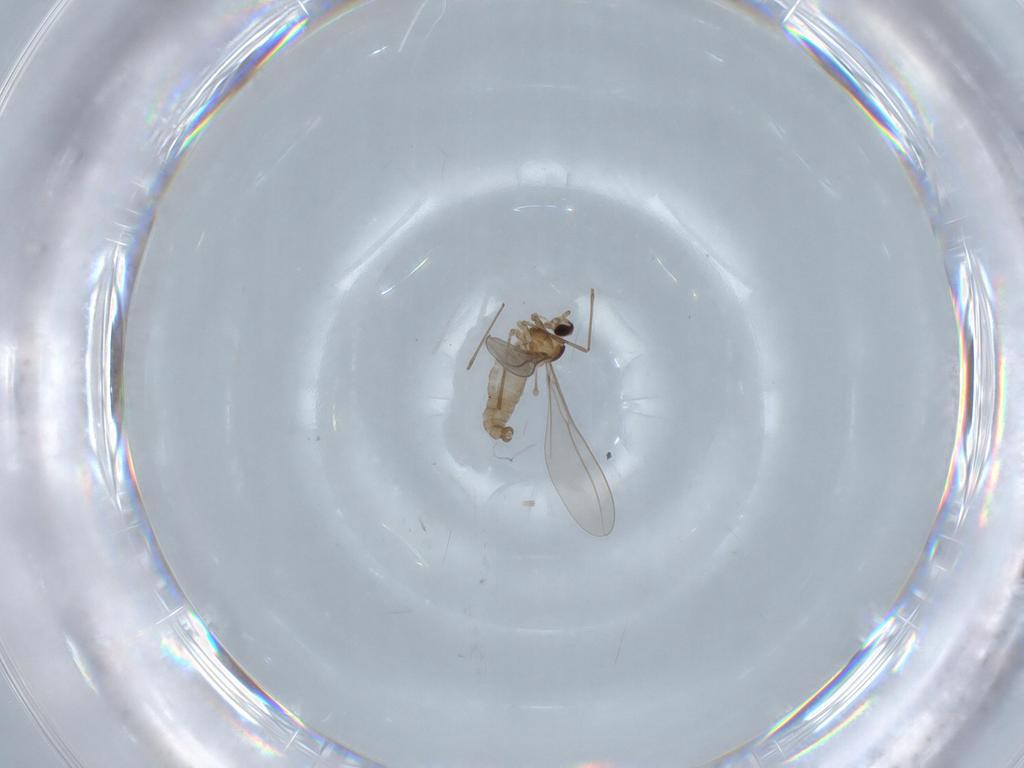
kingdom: Animalia
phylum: Arthropoda
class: Insecta
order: Diptera
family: Cecidomyiidae
